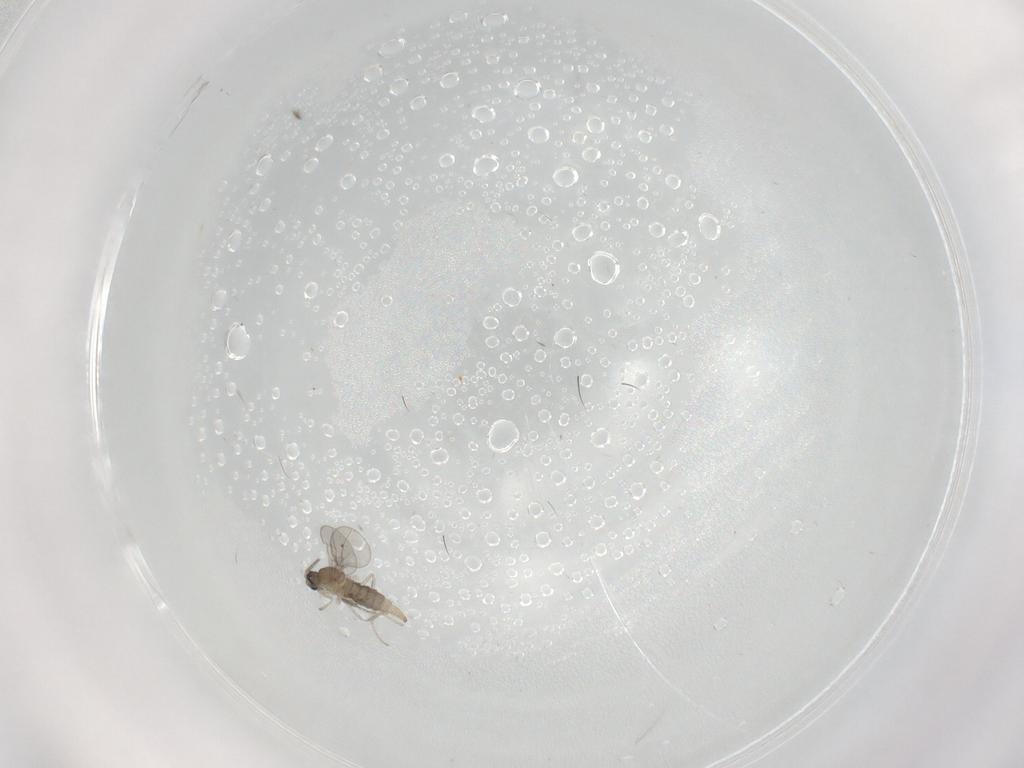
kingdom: Animalia
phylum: Arthropoda
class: Insecta
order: Diptera
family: Cecidomyiidae
